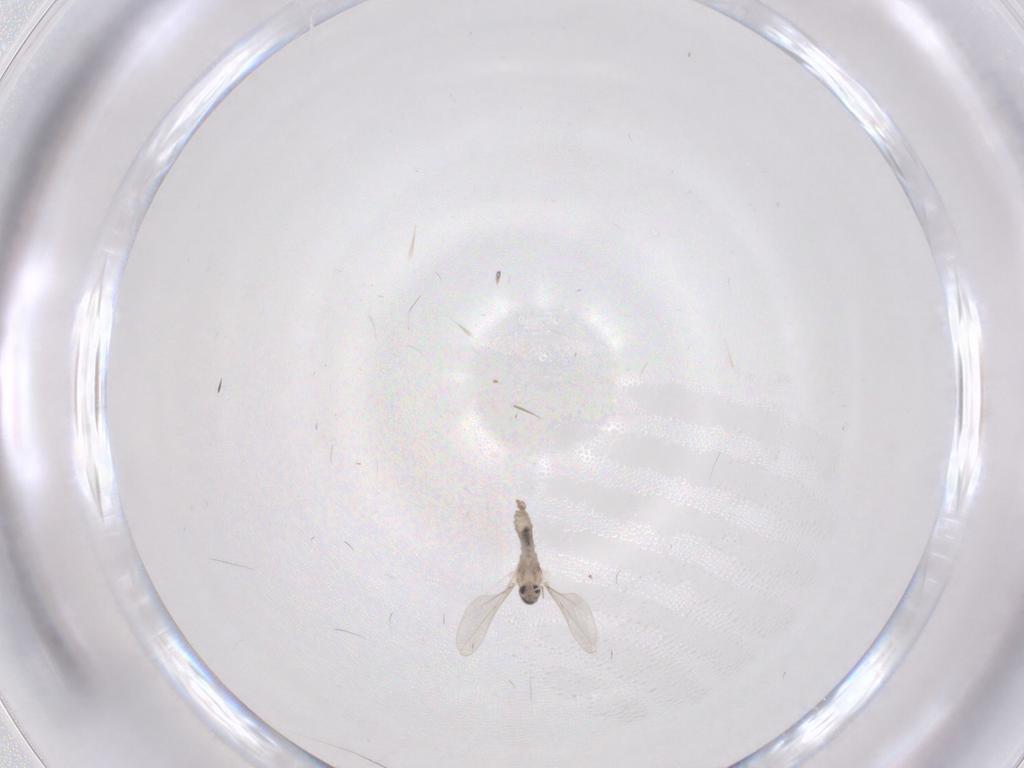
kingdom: Animalia
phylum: Arthropoda
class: Insecta
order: Diptera
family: Cecidomyiidae
